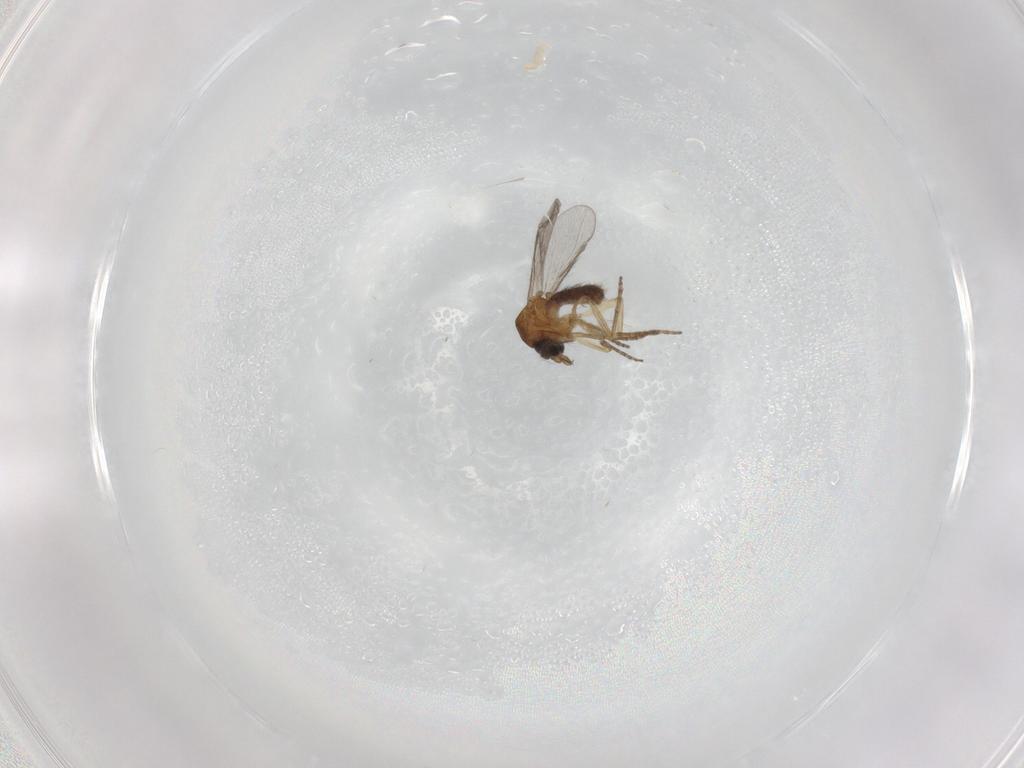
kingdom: Animalia
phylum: Arthropoda
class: Insecta
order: Diptera
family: Ceratopogonidae
